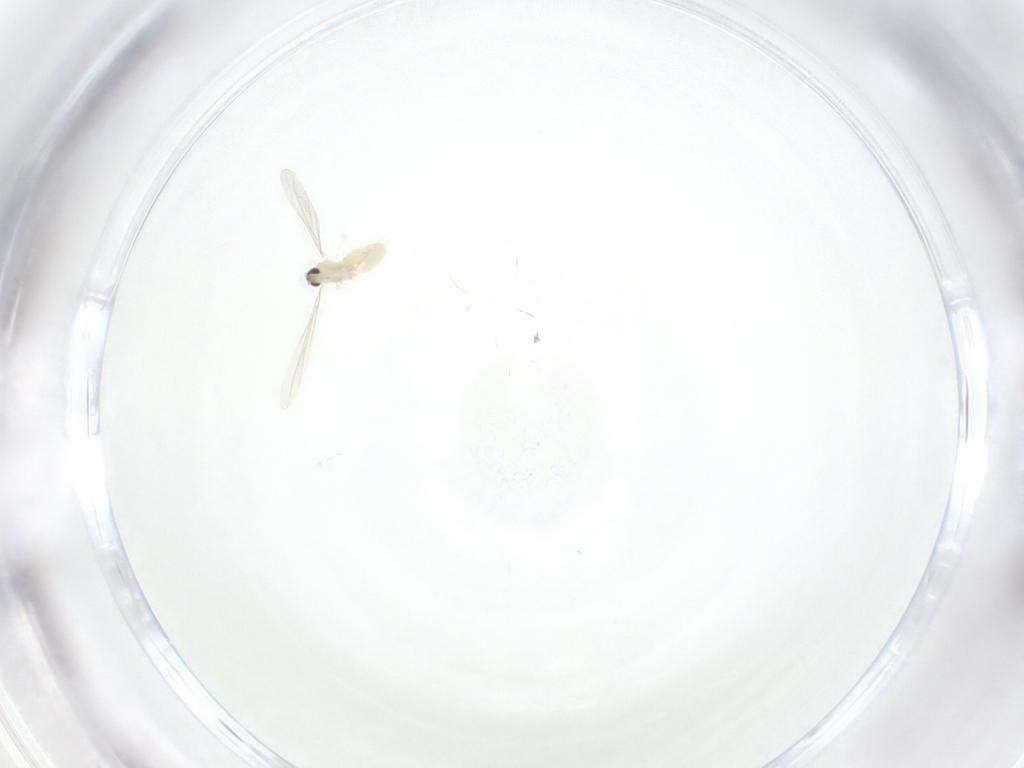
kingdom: Animalia
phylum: Arthropoda
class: Insecta
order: Diptera
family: Cecidomyiidae
